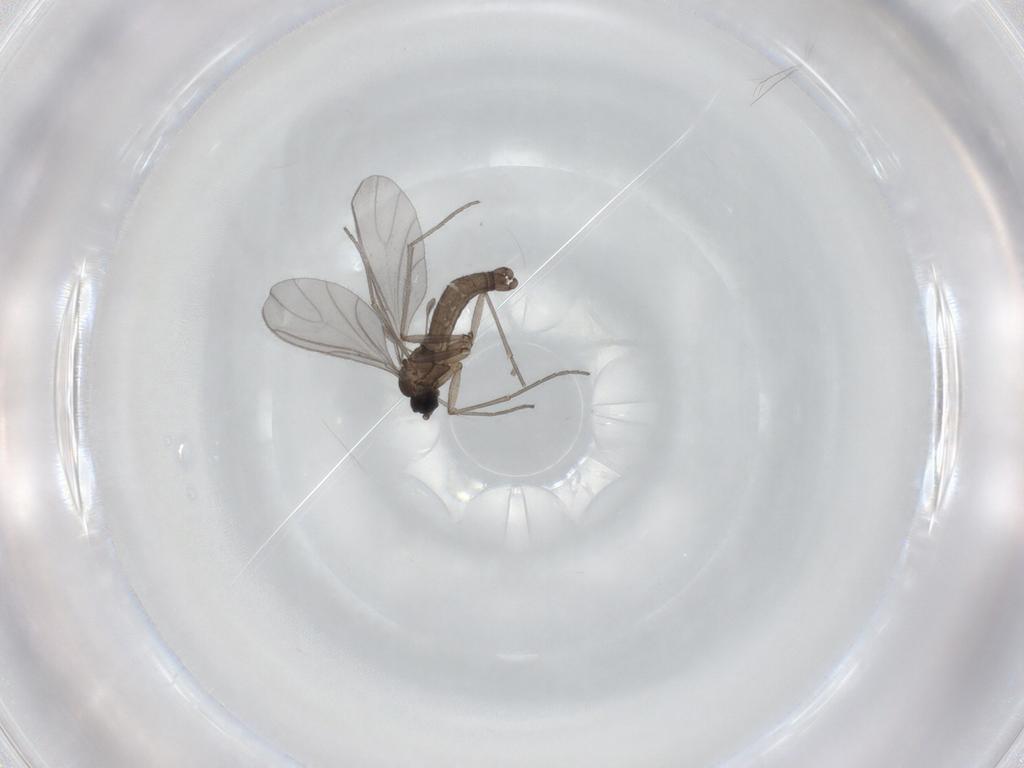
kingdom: Animalia
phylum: Arthropoda
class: Insecta
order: Diptera
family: Sciaridae
